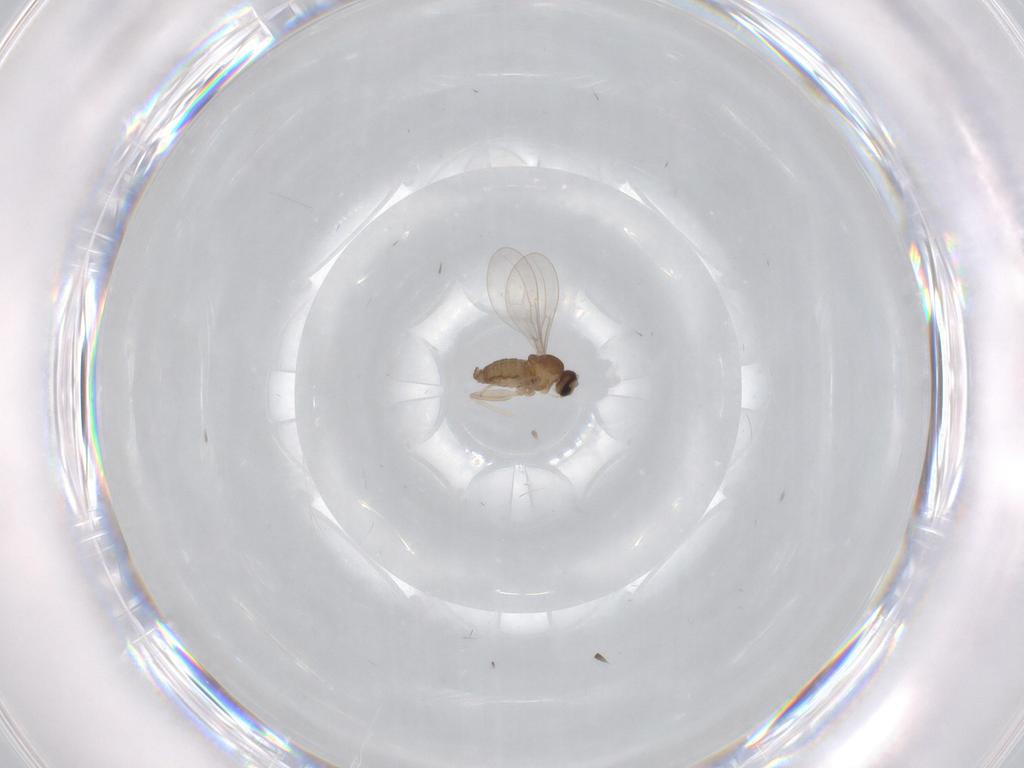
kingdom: Animalia
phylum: Arthropoda
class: Insecta
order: Diptera
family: Cecidomyiidae
